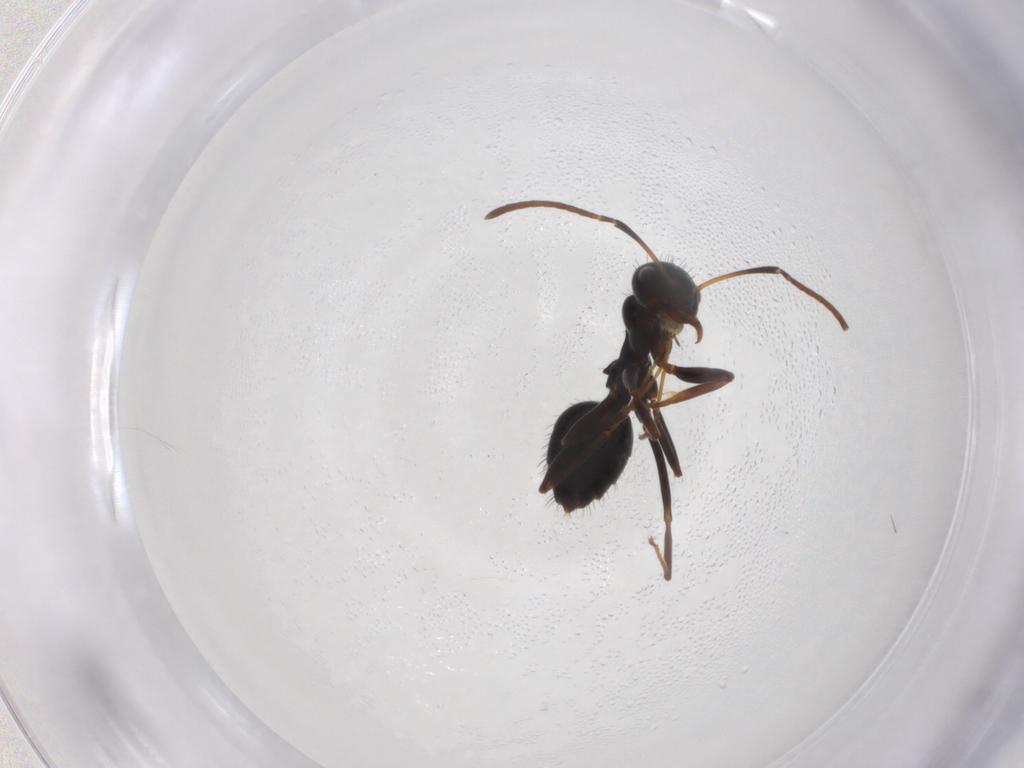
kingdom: Animalia
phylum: Arthropoda
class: Insecta
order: Hymenoptera
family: Formicidae
